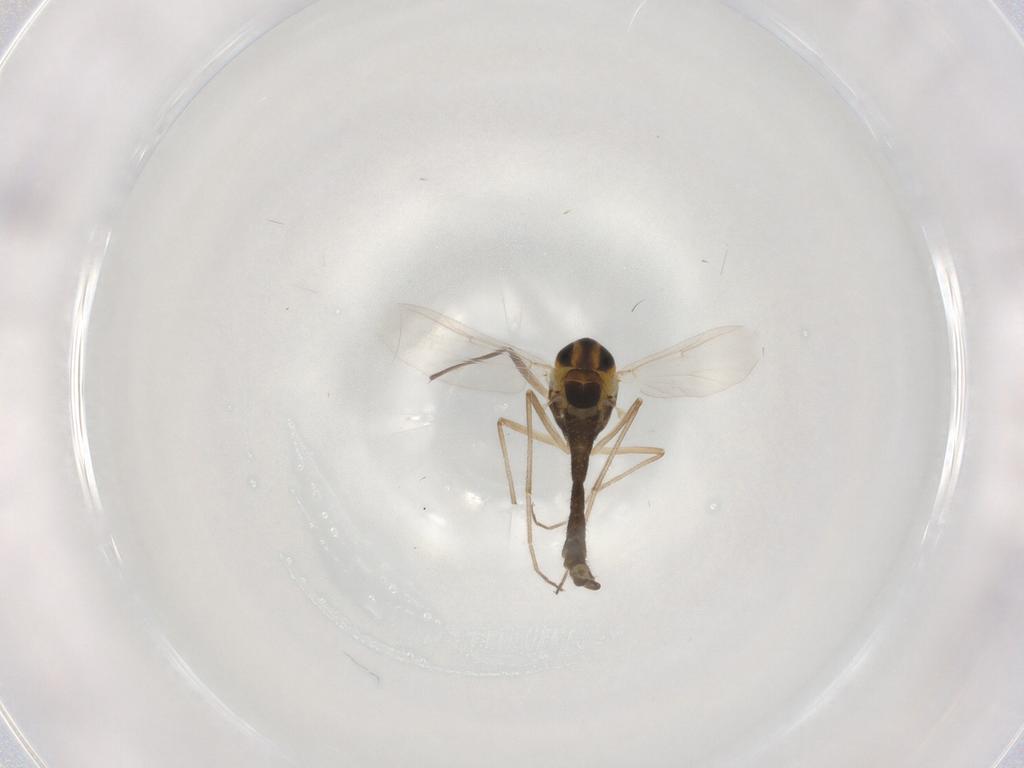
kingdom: Animalia
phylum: Arthropoda
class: Insecta
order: Diptera
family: Chironomidae
